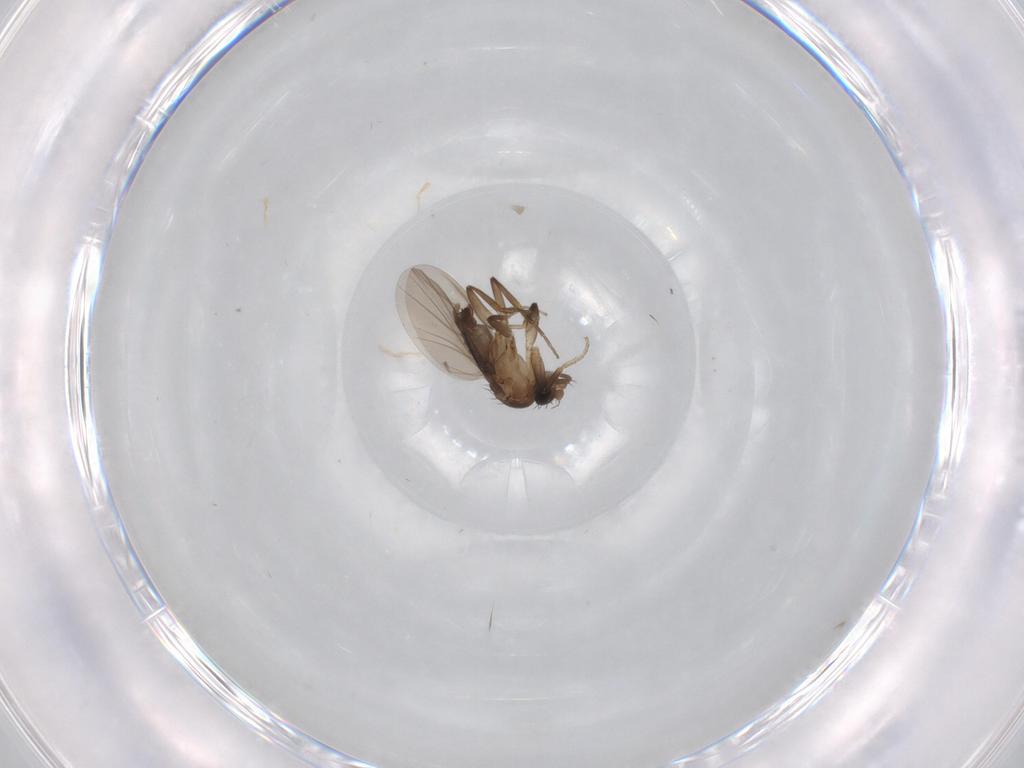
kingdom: Animalia
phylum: Arthropoda
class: Insecta
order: Diptera
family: Phoridae
